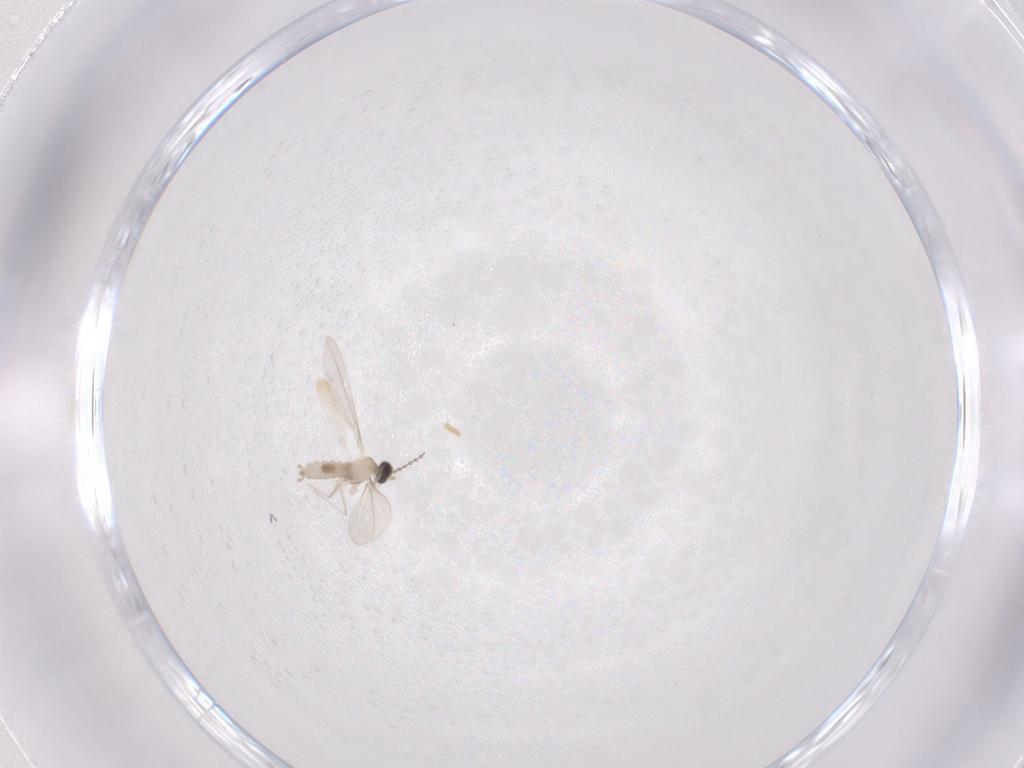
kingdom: Animalia
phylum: Arthropoda
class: Insecta
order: Diptera
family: Cecidomyiidae
